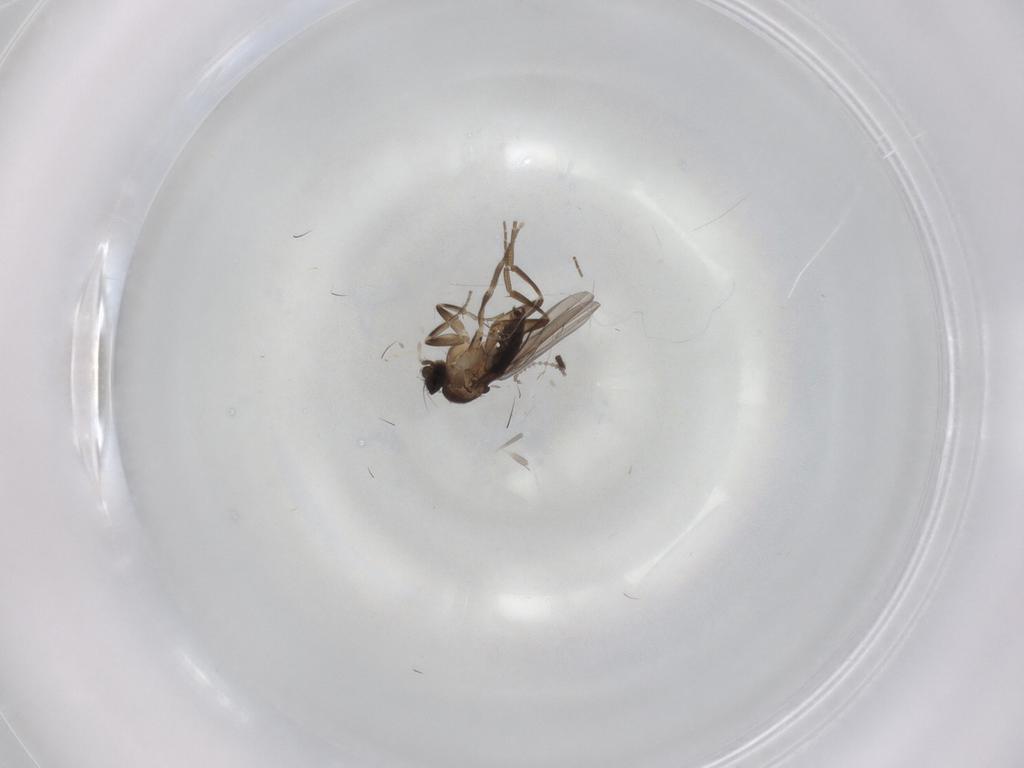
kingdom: Animalia
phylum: Arthropoda
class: Insecta
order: Diptera
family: Sciaridae
